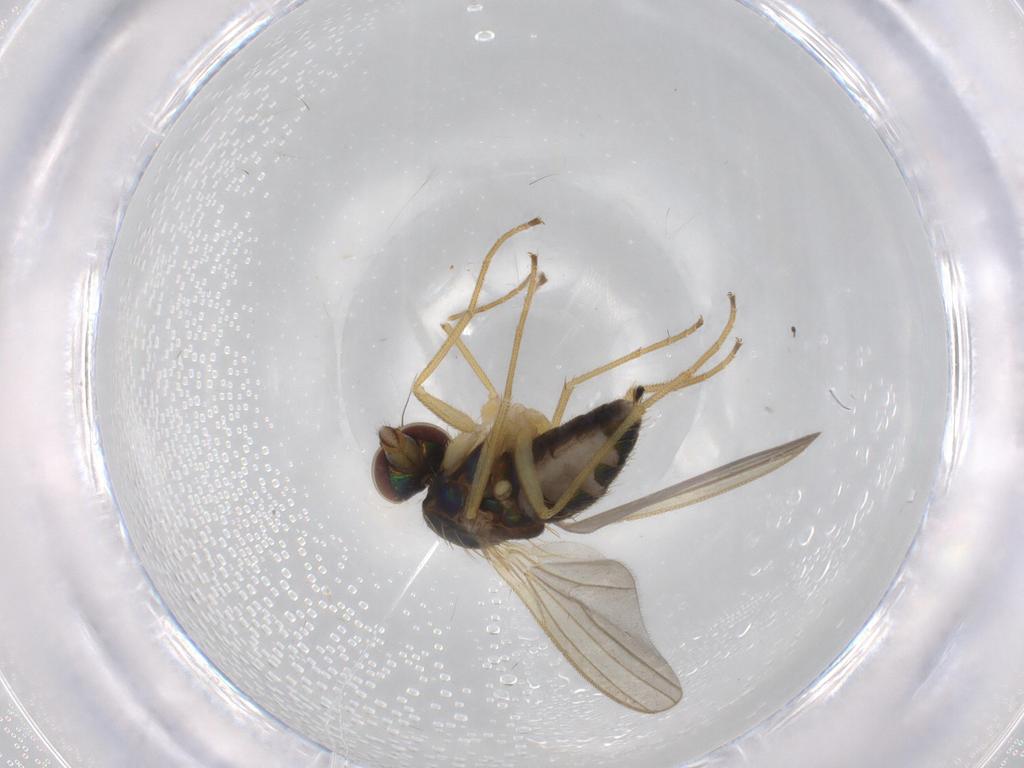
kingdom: Animalia
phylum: Arthropoda
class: Insecta
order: Diptera
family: Dolichopodidae
